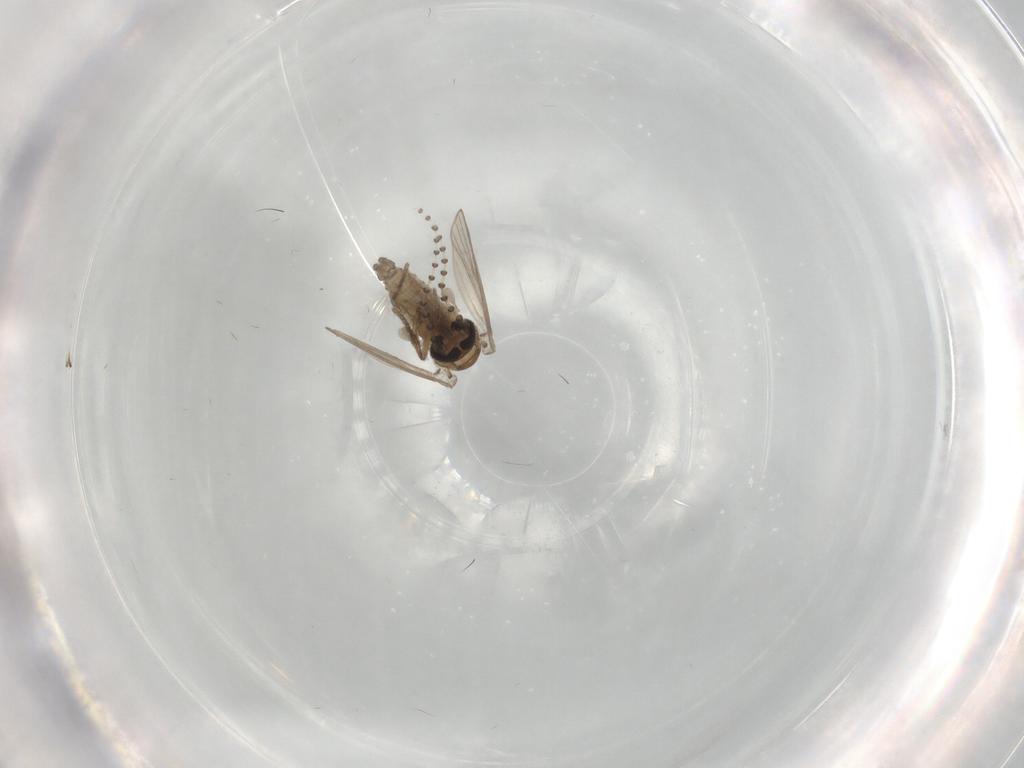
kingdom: Animalia
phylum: Arthropoda
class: Insecta
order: Diptera
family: Psychodidae
